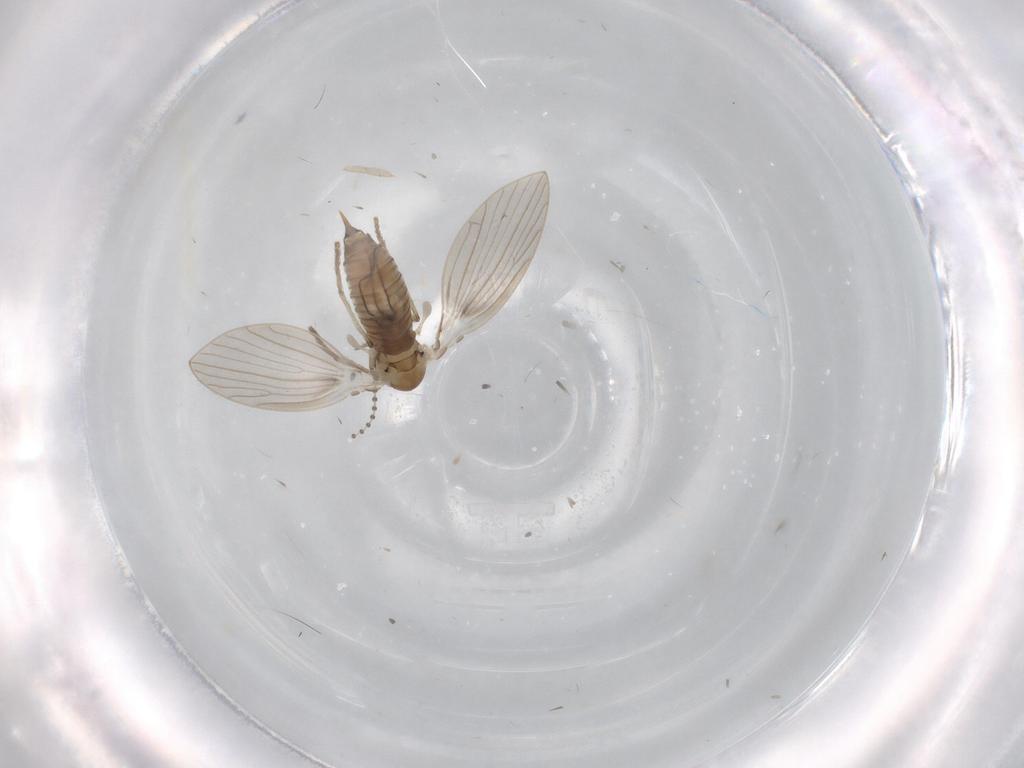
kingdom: Animalia
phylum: Arthropoda
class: Insecta
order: Diptera
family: Psychodidae
